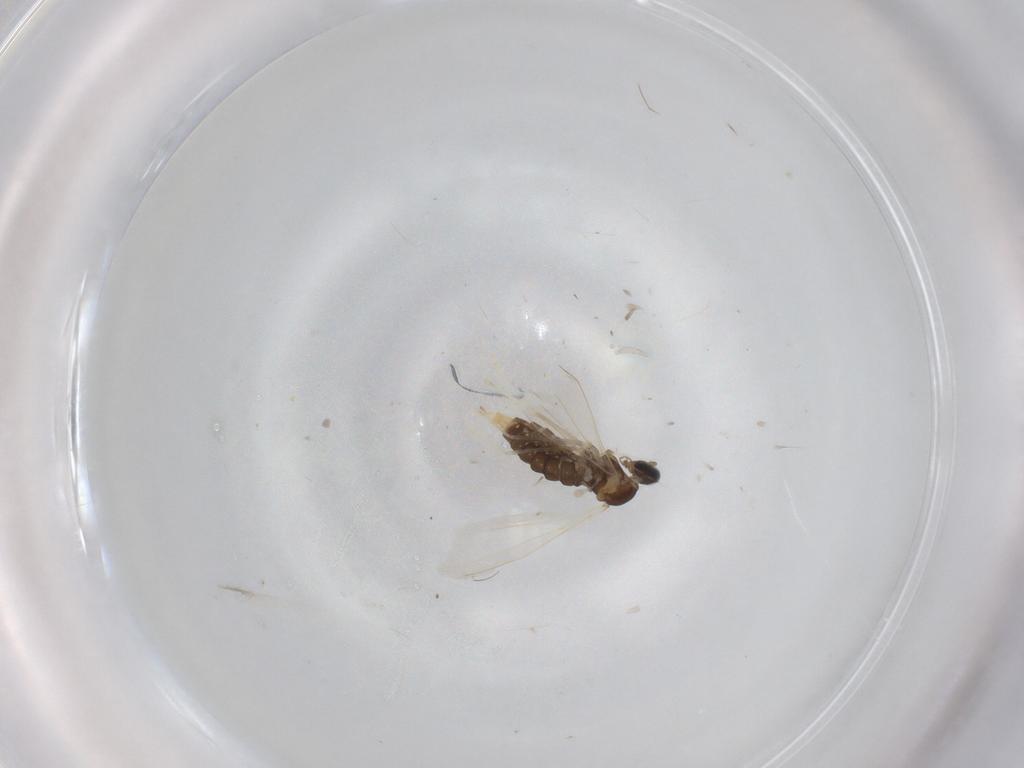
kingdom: Animalia
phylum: Arthropoda
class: Insecta
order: Diptera
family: Cecidomyiidae
